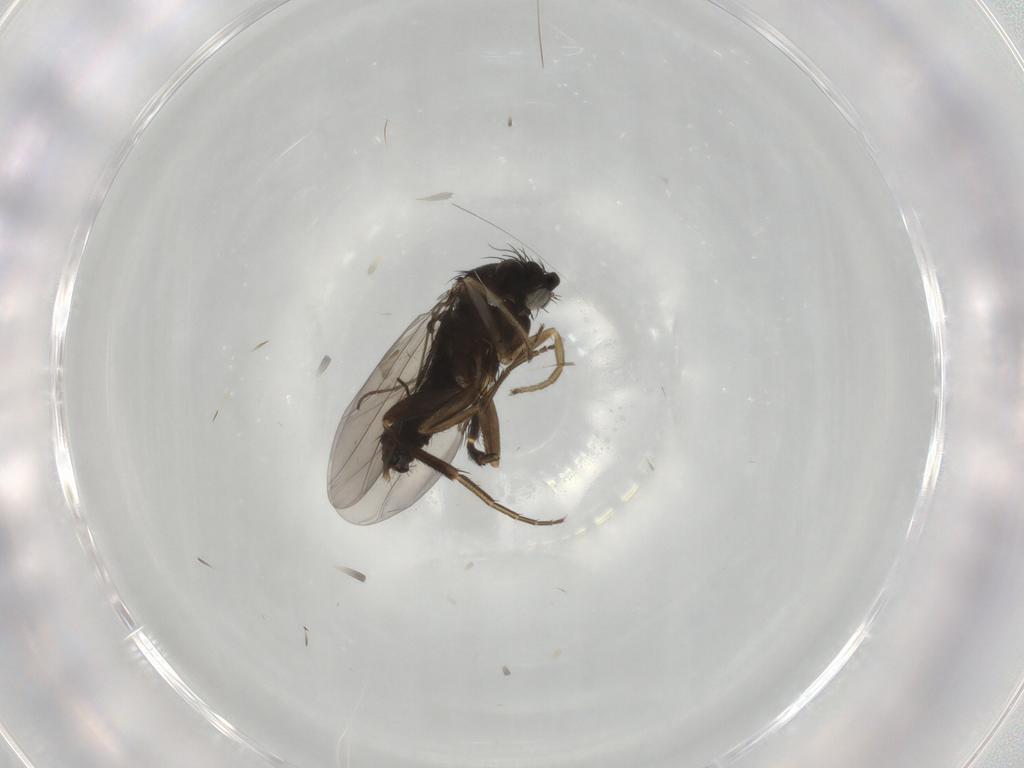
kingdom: Animalia
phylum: Arthropoda
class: Insecta
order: Diptera
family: Phoridae
